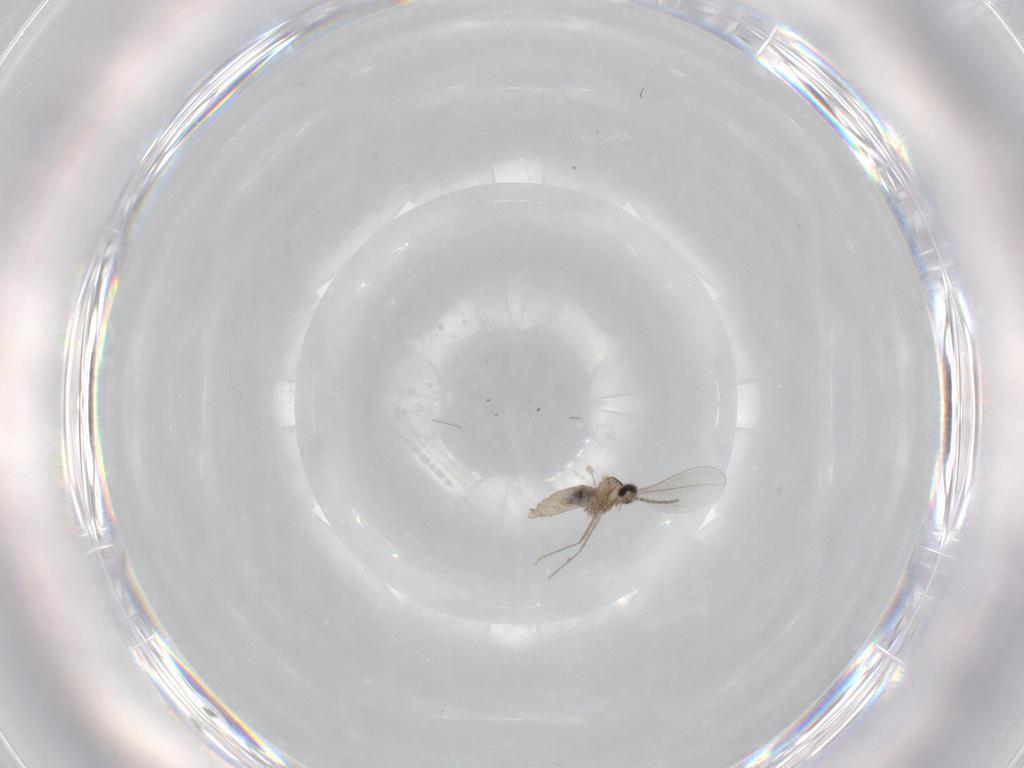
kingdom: Animalia
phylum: Arthropoda
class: Insecta
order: Diptera
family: Cecidomyiidae
